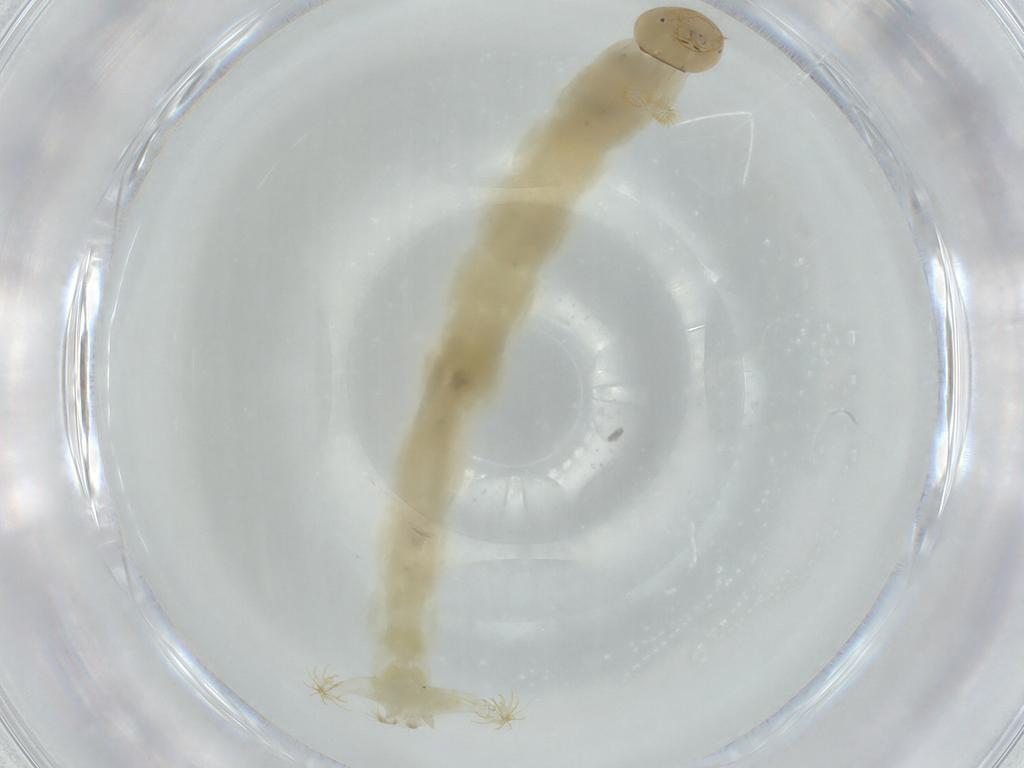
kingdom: Animalia
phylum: Arthropoda
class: Insecta
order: Diptera
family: Chironomidae
